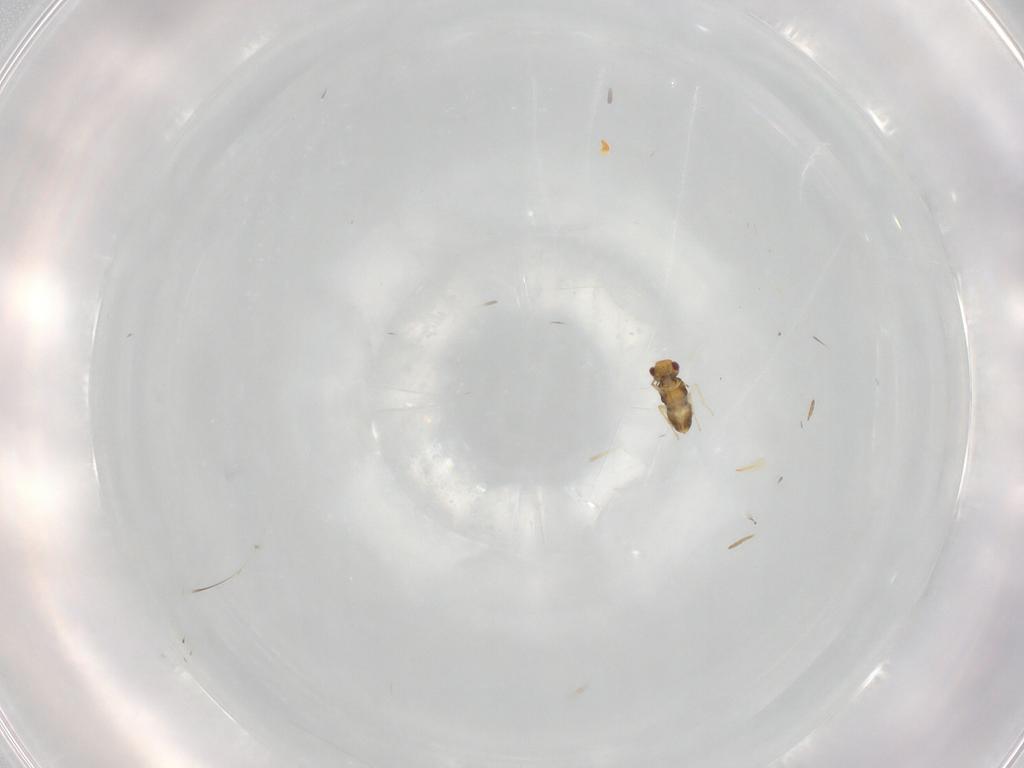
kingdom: Animalia
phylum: Arthropoda
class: Insecta
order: Hymenoptera
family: Aphelinidae
